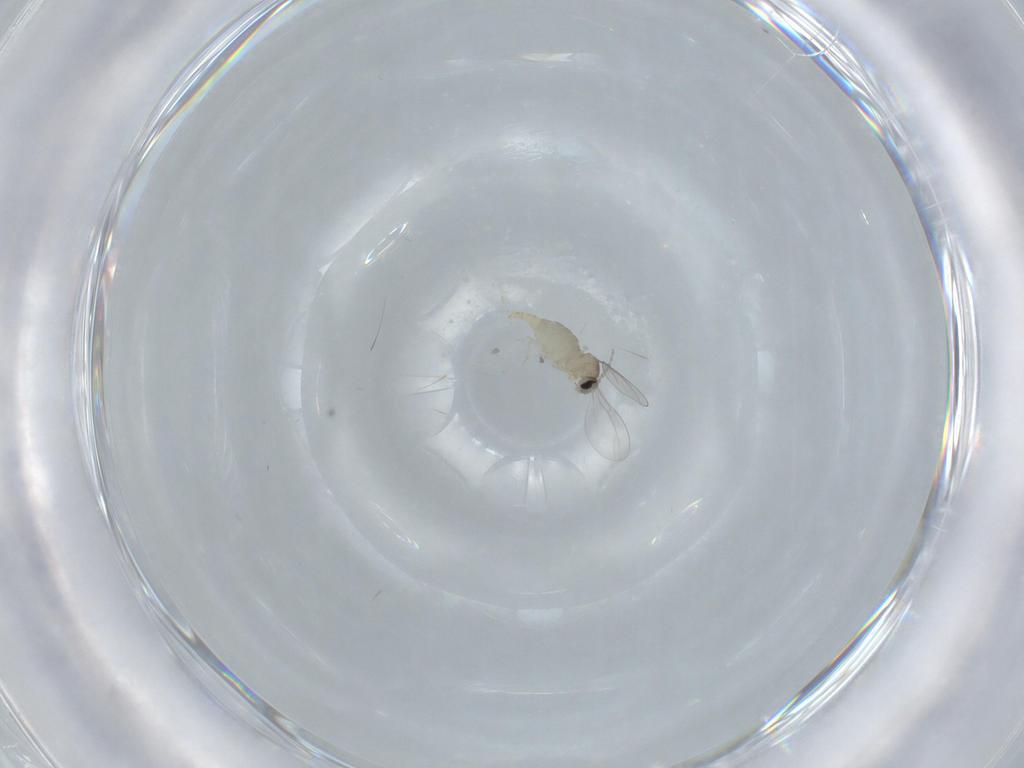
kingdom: Animalia
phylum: Arthropoda
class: Insecta
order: Diptera
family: Cecidomyiidae
